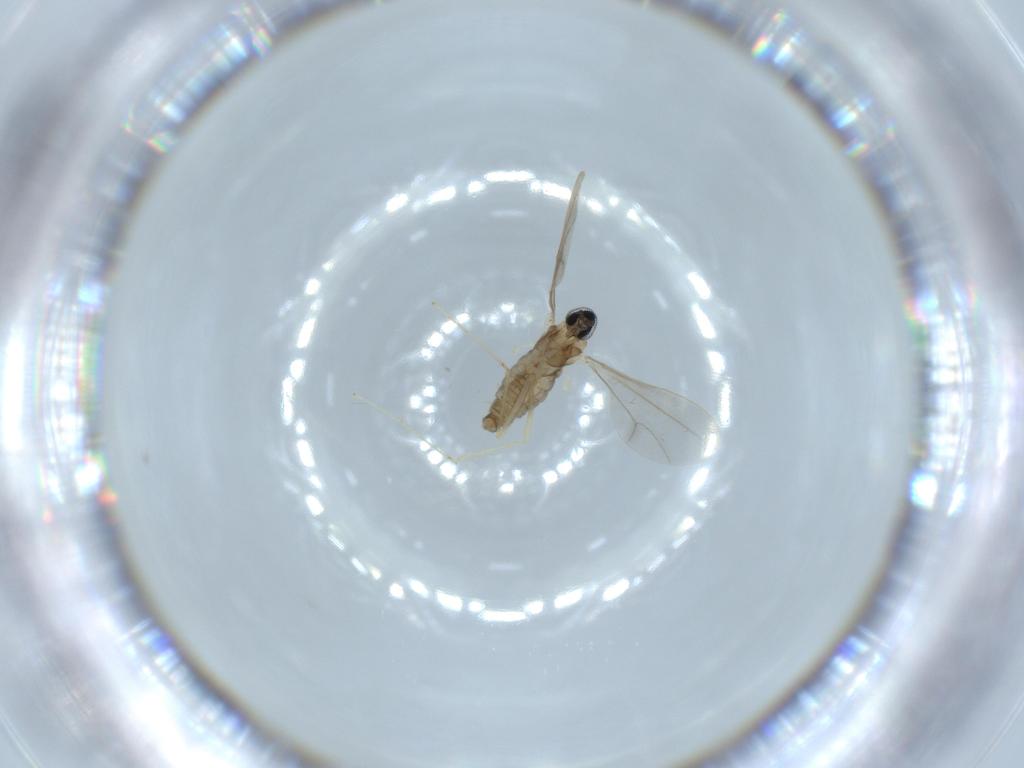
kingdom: Animalia
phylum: Arthropoda
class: Insecta
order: Diptera
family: Cecidomyiidae
